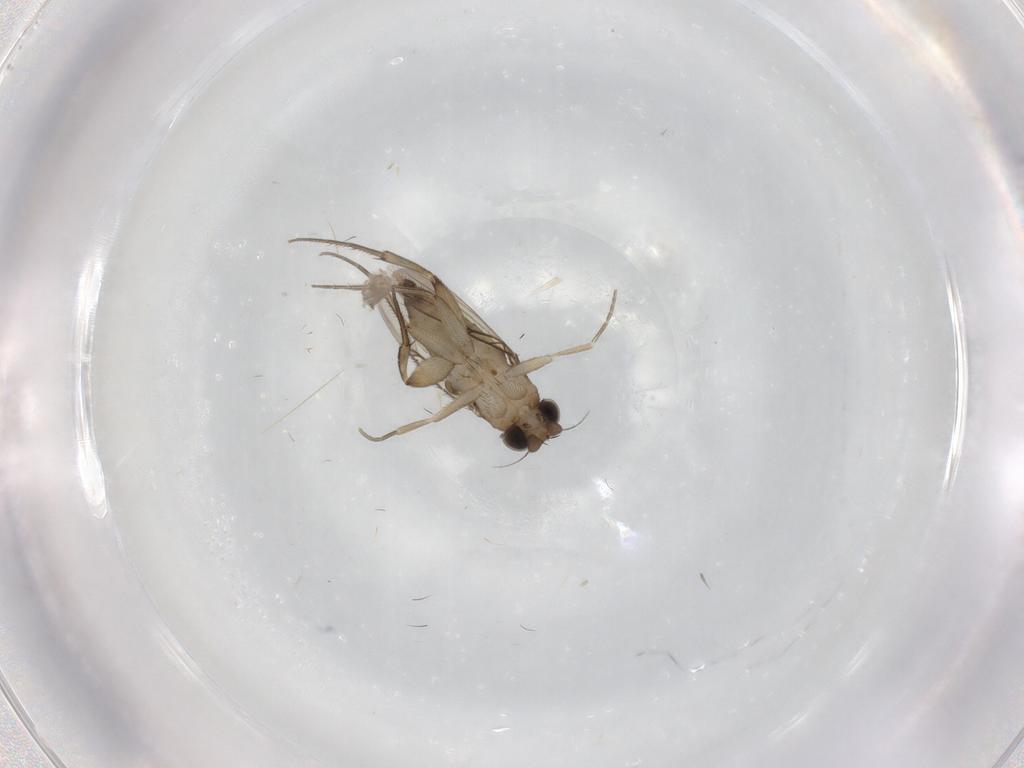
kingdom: Animalia
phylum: Arthropoda
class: Insecta
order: Diptera
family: Phoridae
